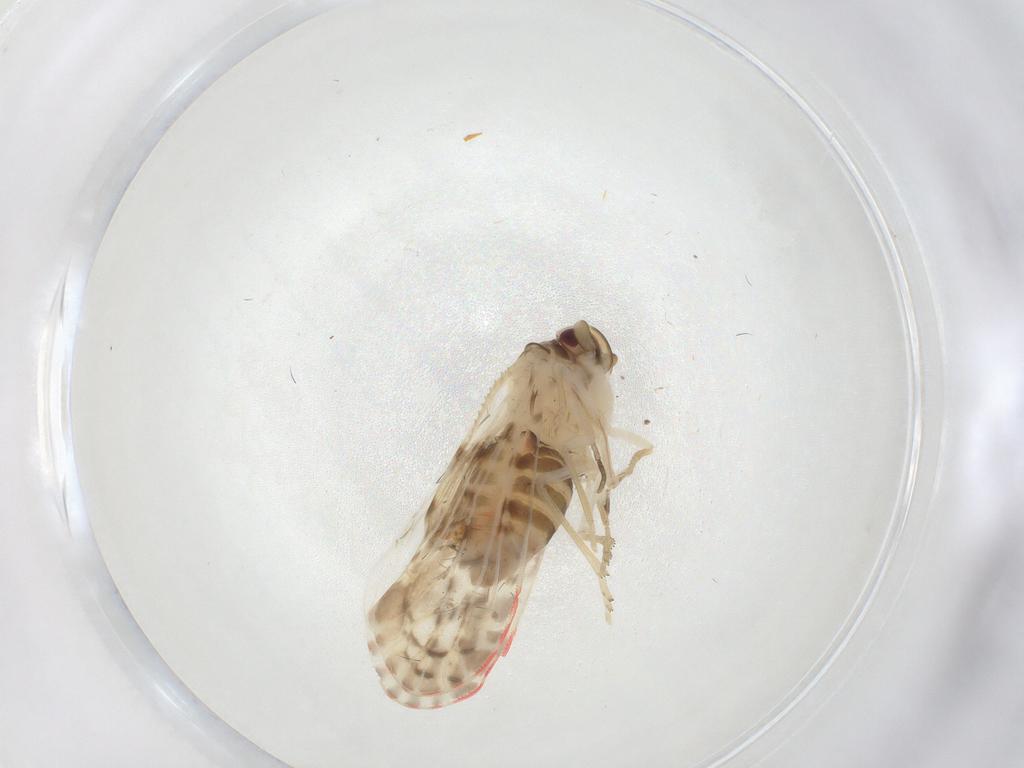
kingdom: Animalia
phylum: Arthropoda
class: Insecta
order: Hemiptera
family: Derbidae
